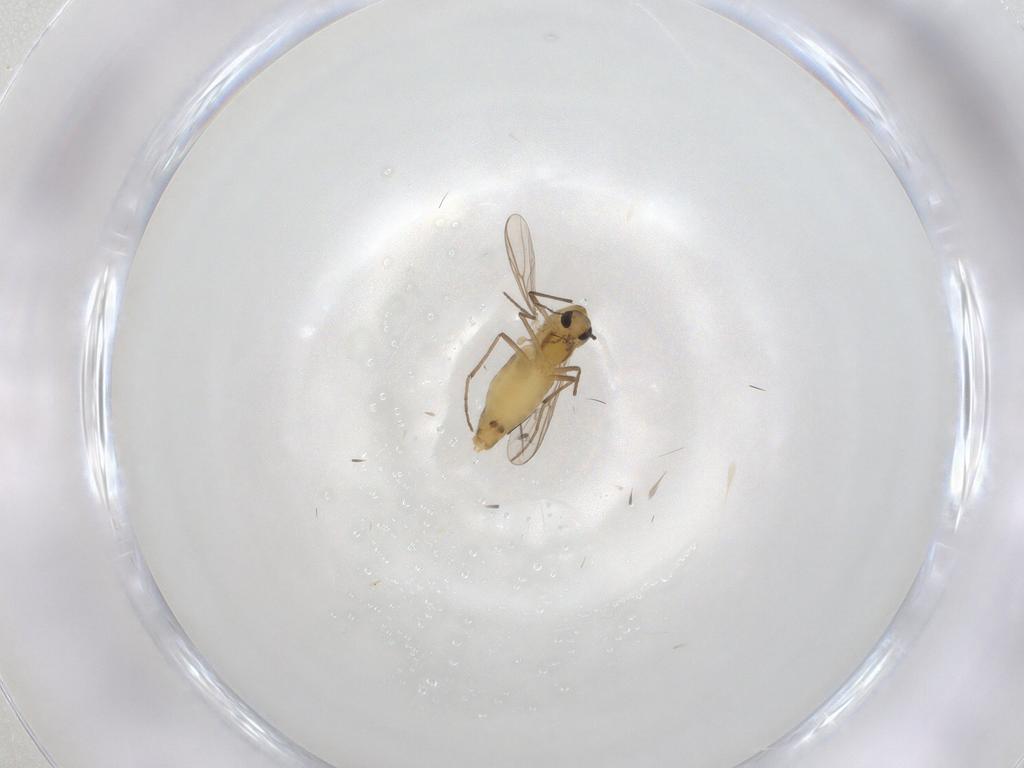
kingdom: Animalia
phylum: Arthropoda
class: Insecta
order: Diptera
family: Chironomidae
